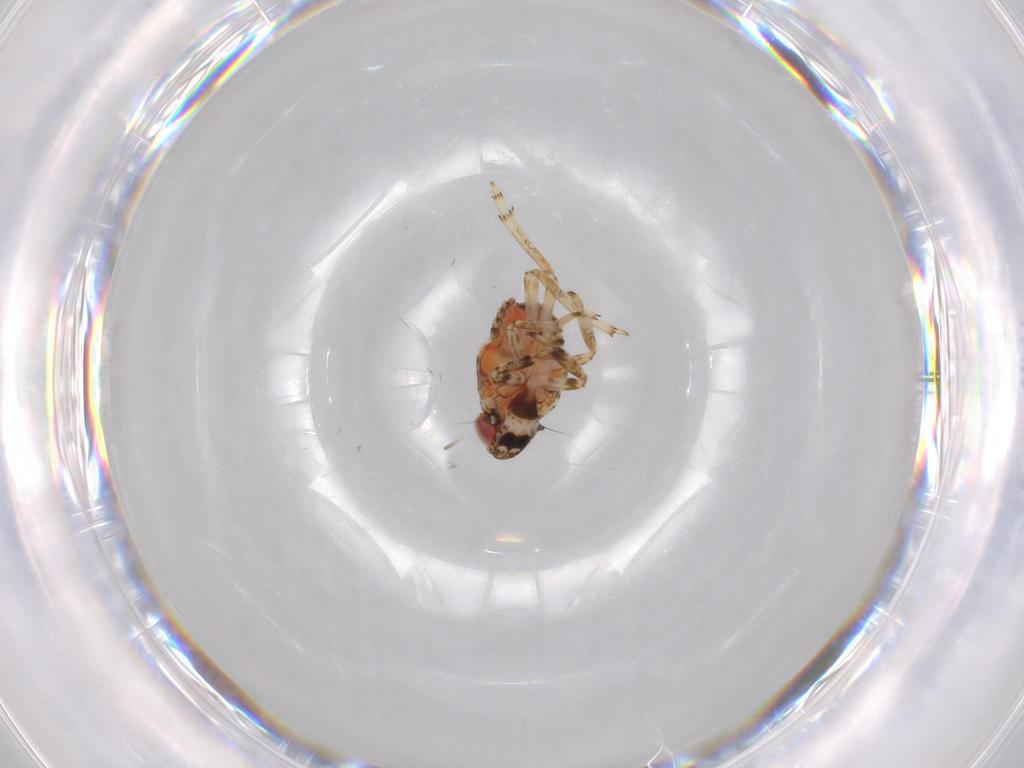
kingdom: Animalia
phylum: Arthropoda
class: Insecta
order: Hemiptera
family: Issidae
